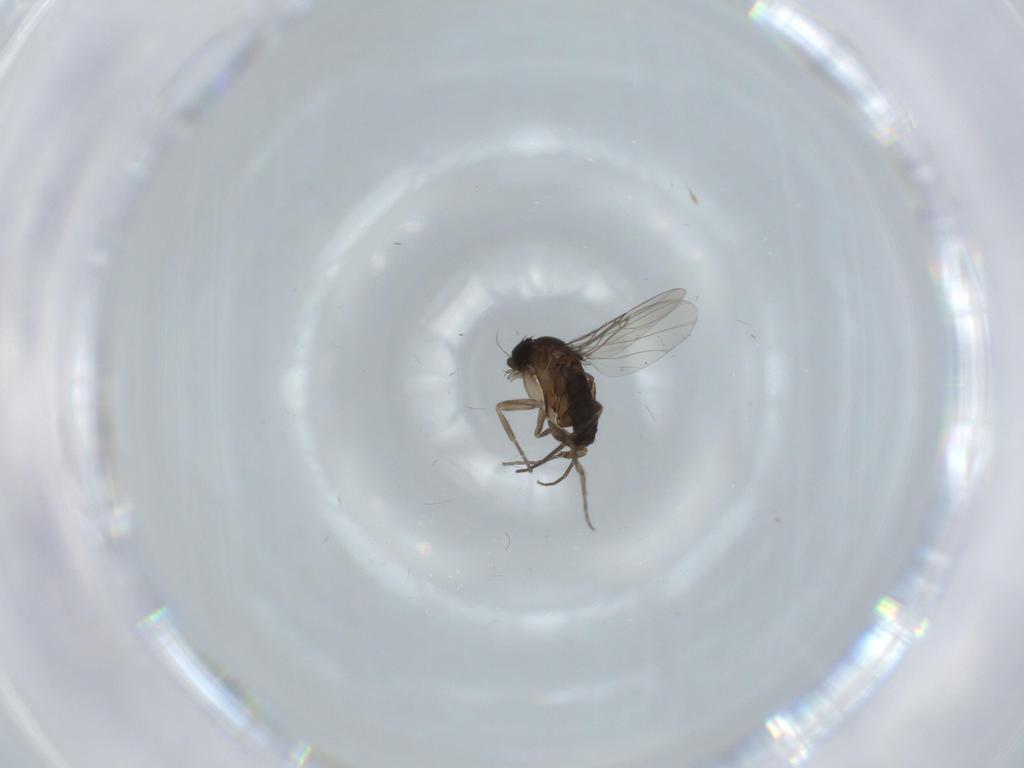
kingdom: Animalia
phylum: Arthropoda
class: Insecta
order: Diptera
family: Phoridae
